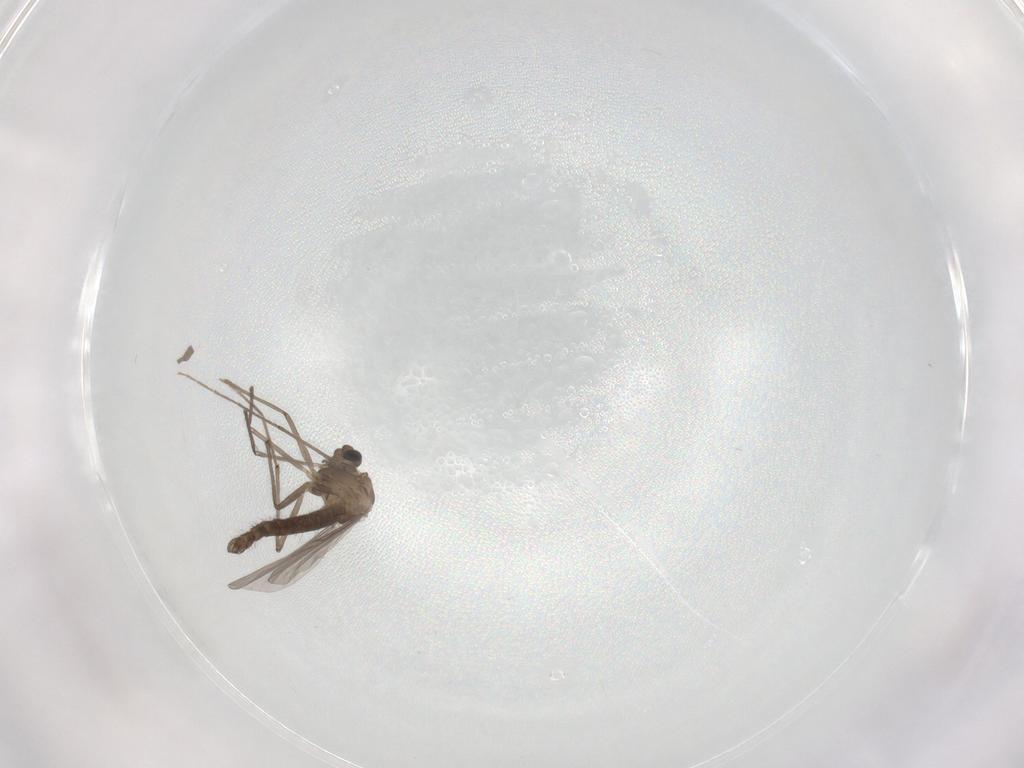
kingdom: Animalia
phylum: Arthropoda
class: Insecta
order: Diptera
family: Chironomidae
